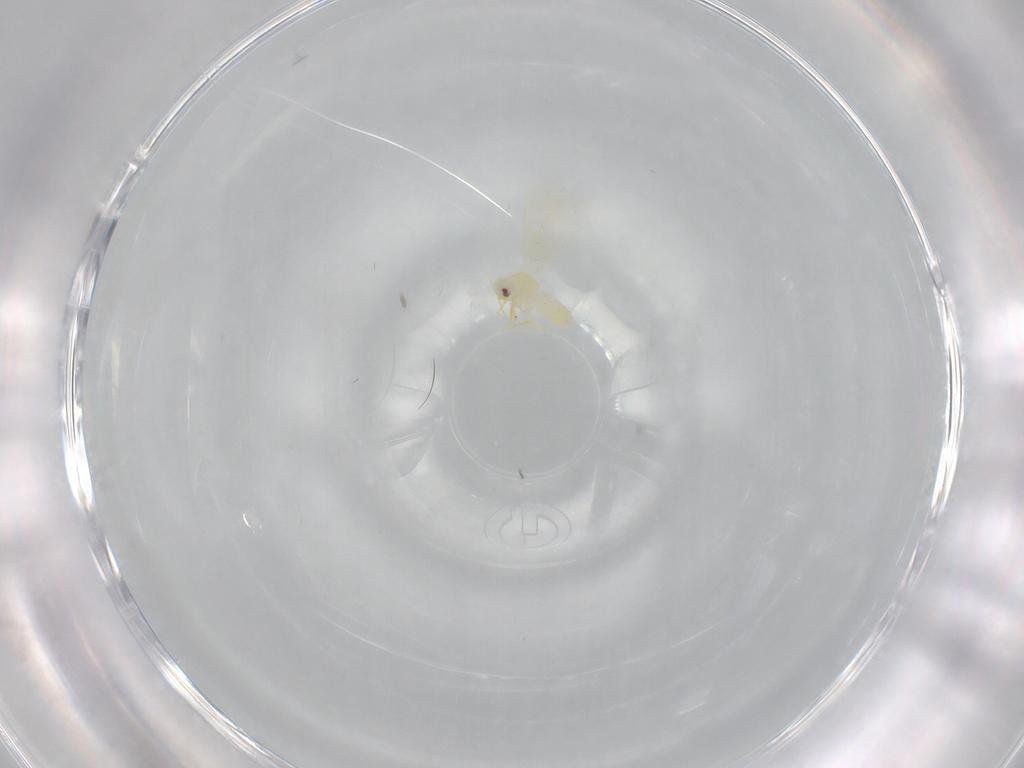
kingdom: Animalia
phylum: Arthropoda
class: Insecta
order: Hemiptera
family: Aleyrodidae
